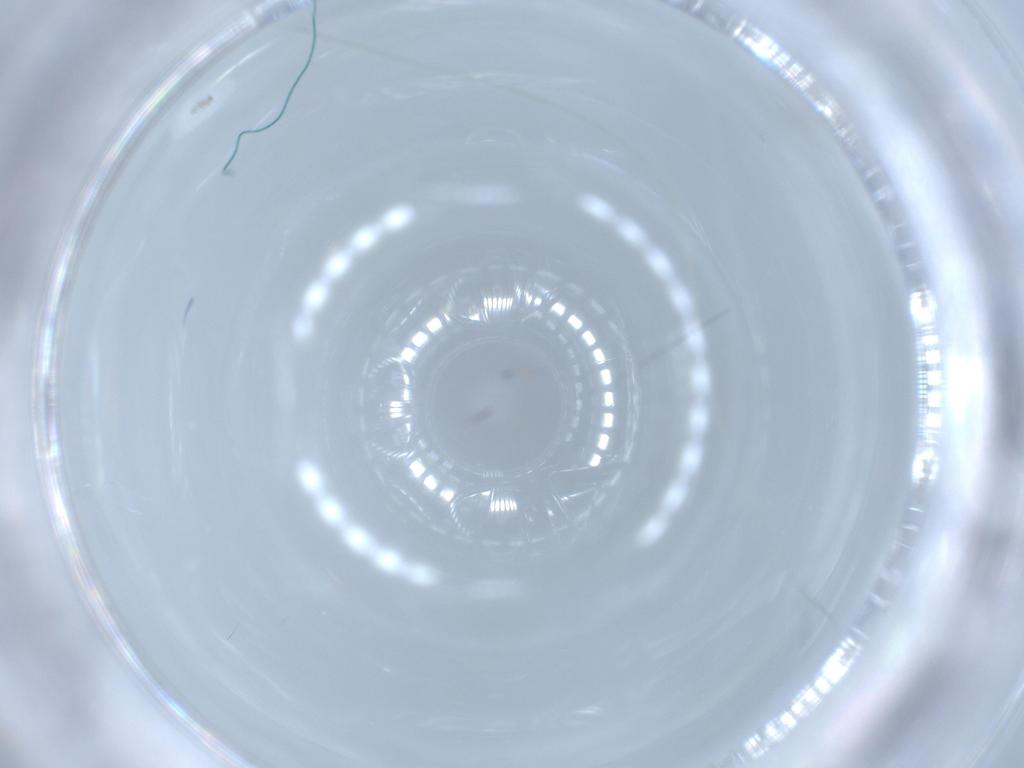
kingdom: Animalia
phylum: Arthropoda
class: Insecta
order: Hymenoptera
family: Mymaridae
